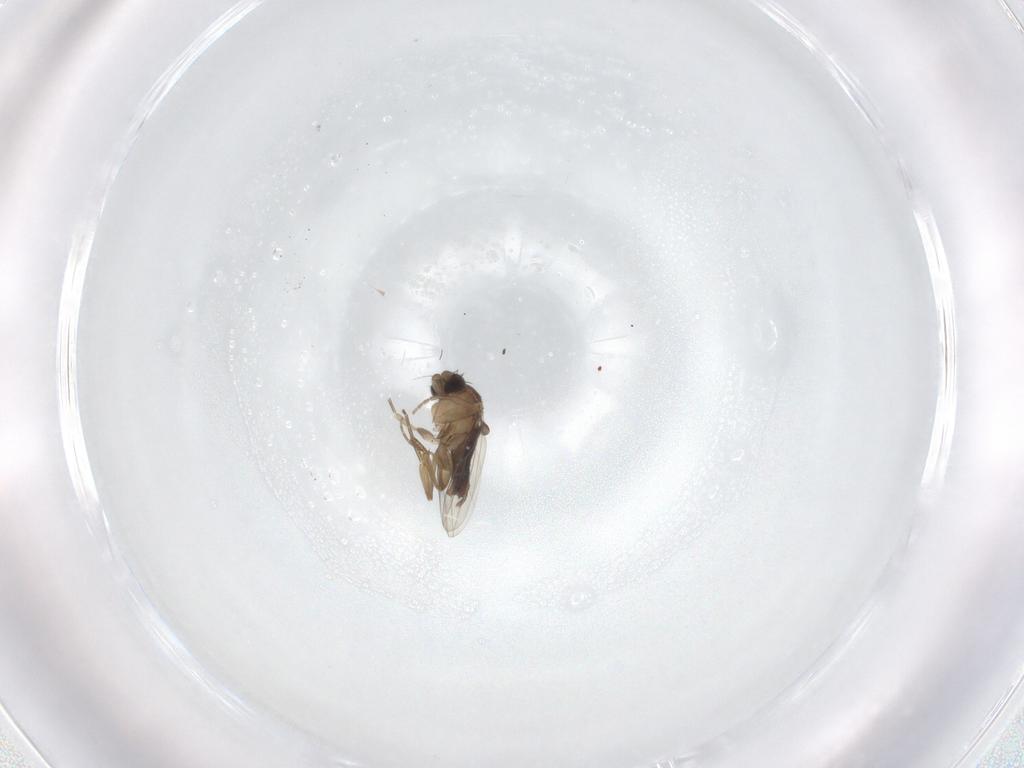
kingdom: Animalia
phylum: Arthropoda
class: Insecta
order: Diptera
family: Phoridae
